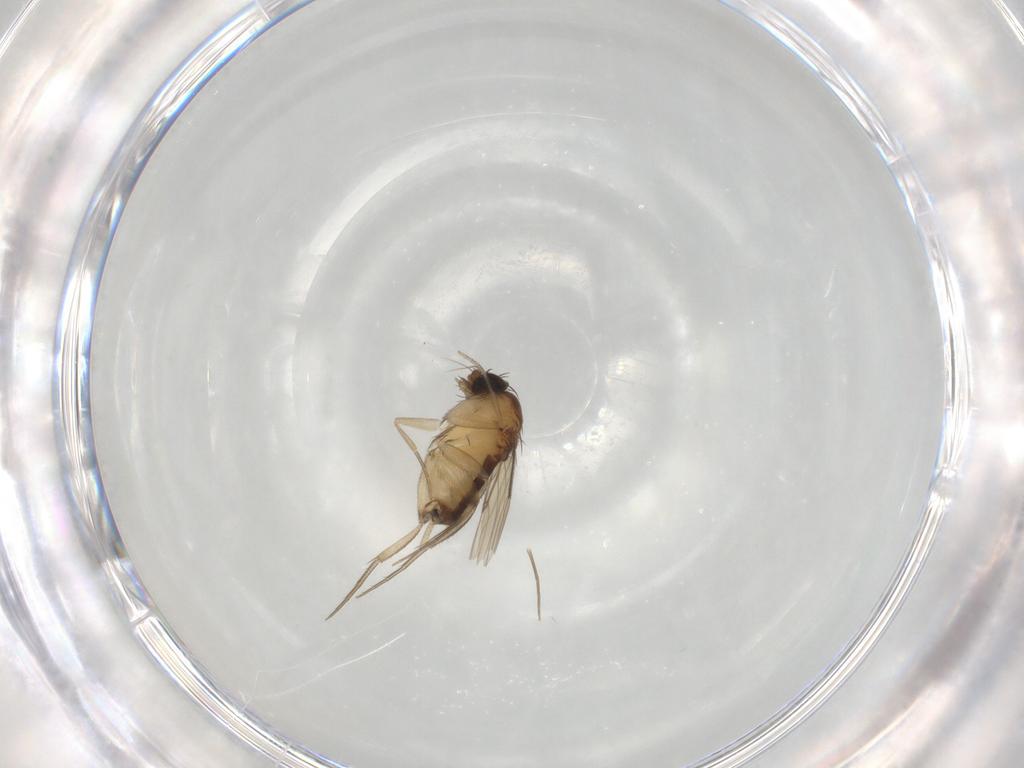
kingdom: Animalia
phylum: Arthropoda
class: Insecta
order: Diptera
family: Phoridae
